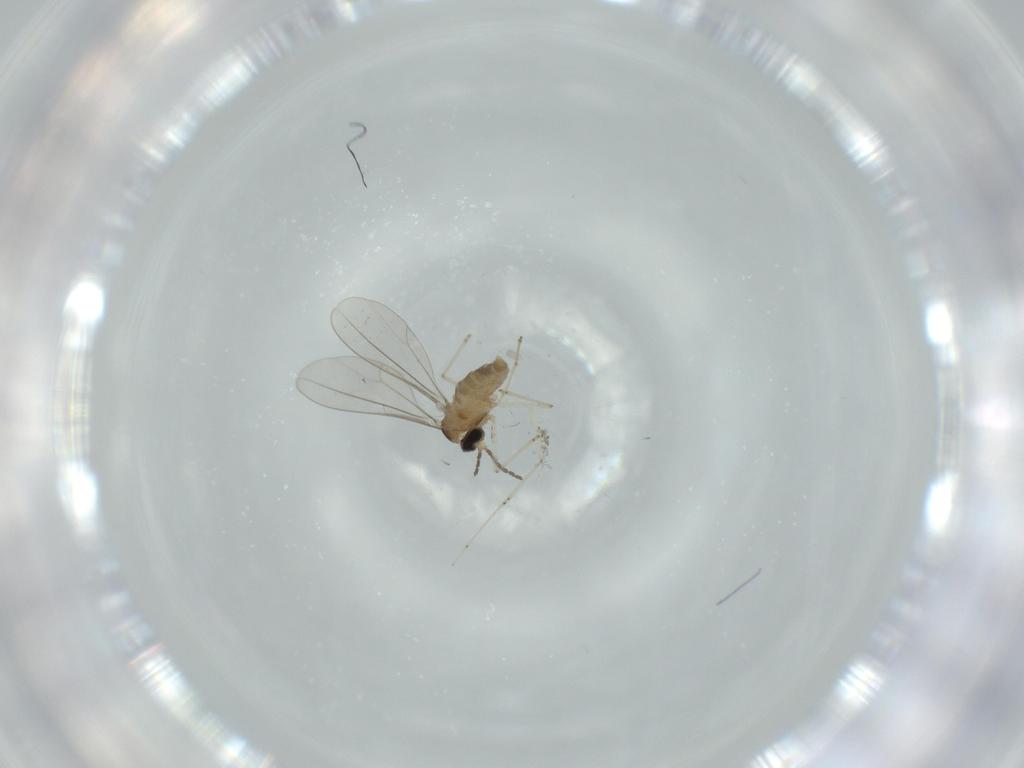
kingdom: Animalia
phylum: Arthropoda
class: Insecta
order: Diptera
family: Cecidomyiidae
